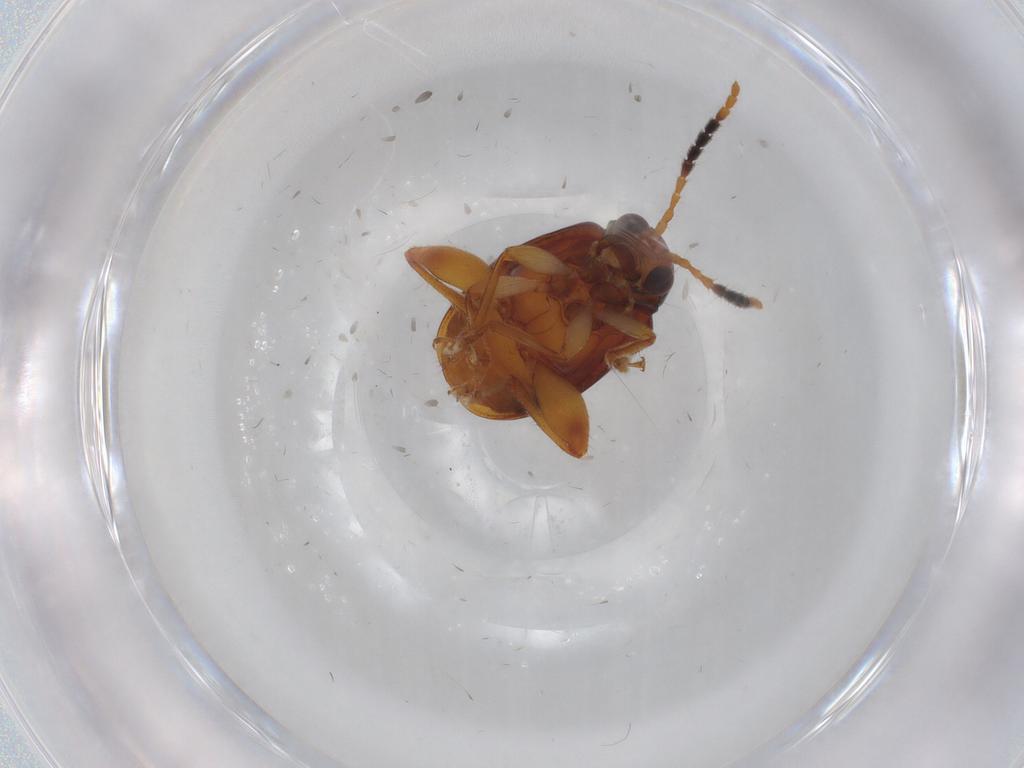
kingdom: Animalia
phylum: Arthropoda
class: Insecta
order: Coleoptera
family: Chrysomelidae
